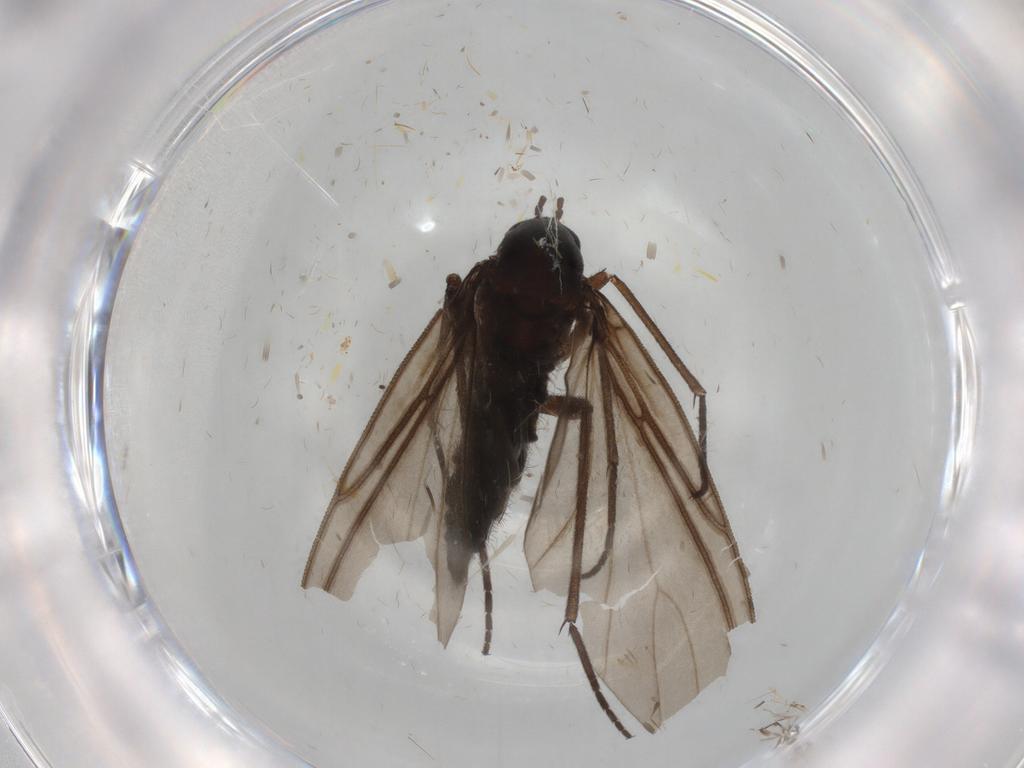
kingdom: Animalia
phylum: Arthropoda
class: Insecta
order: Diptera
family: Sciaridae
